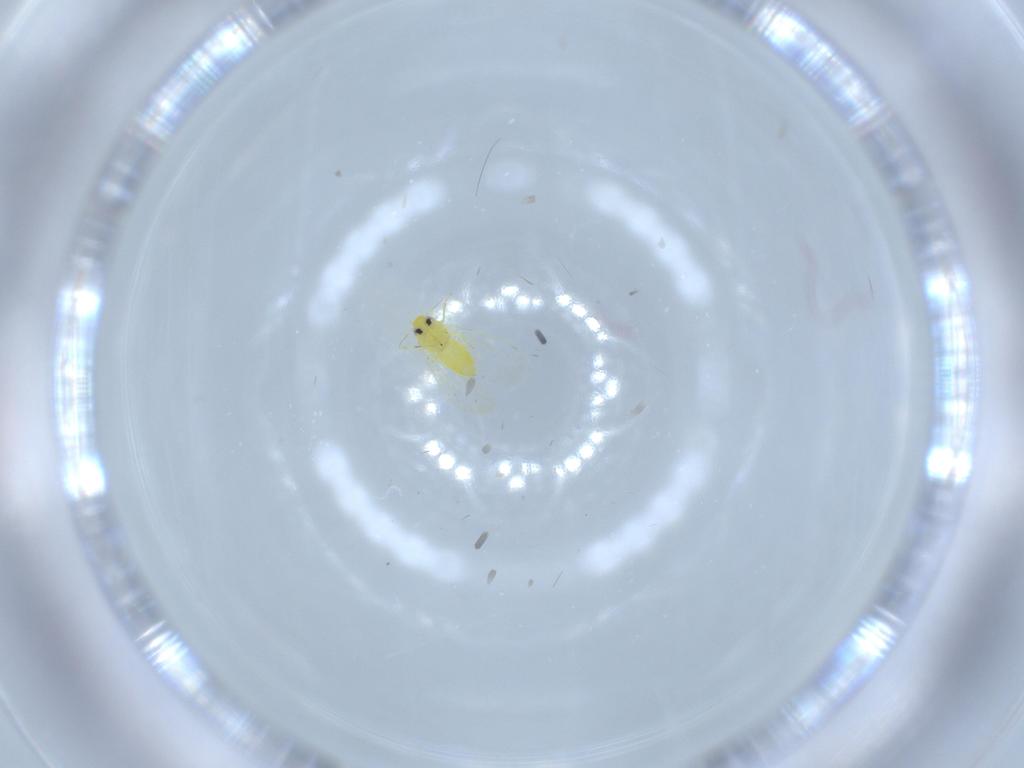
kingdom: Animalia
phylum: Arthropoda
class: Insecta
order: Hemiptera
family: Aleyrodidae
